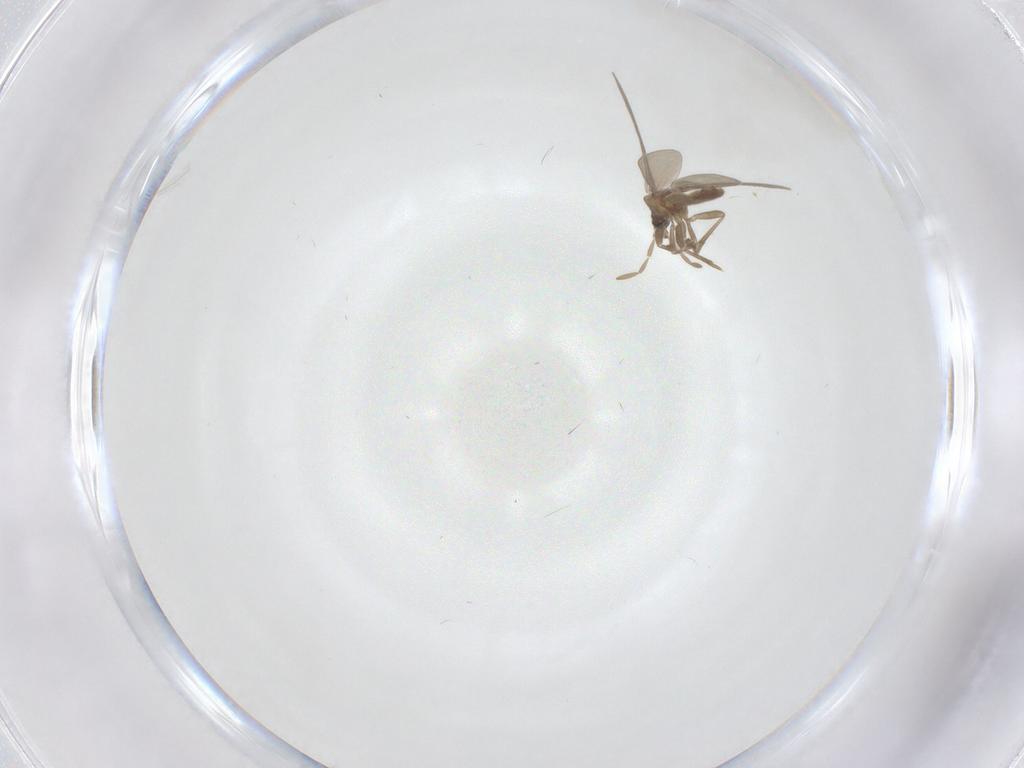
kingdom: Animalia
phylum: Arthropoda
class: Insecta
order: Hemiptera
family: Enicocephalidae
